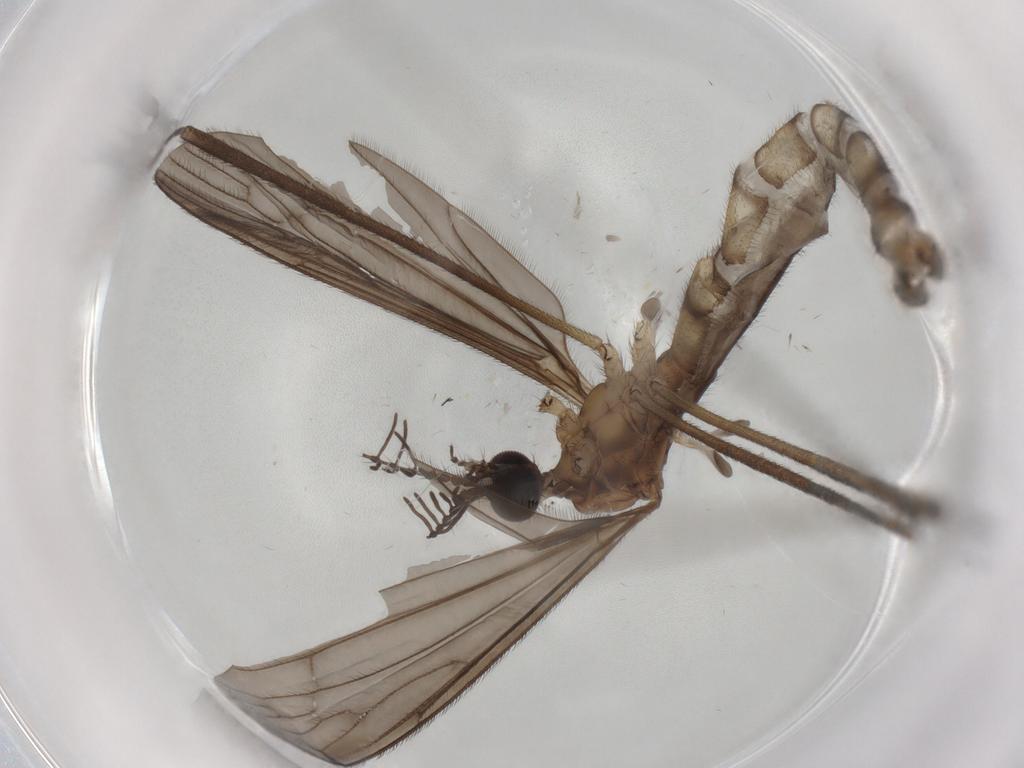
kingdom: Animalia
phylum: Arthropoda
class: Insecta
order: Diptera
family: Limoniidae
